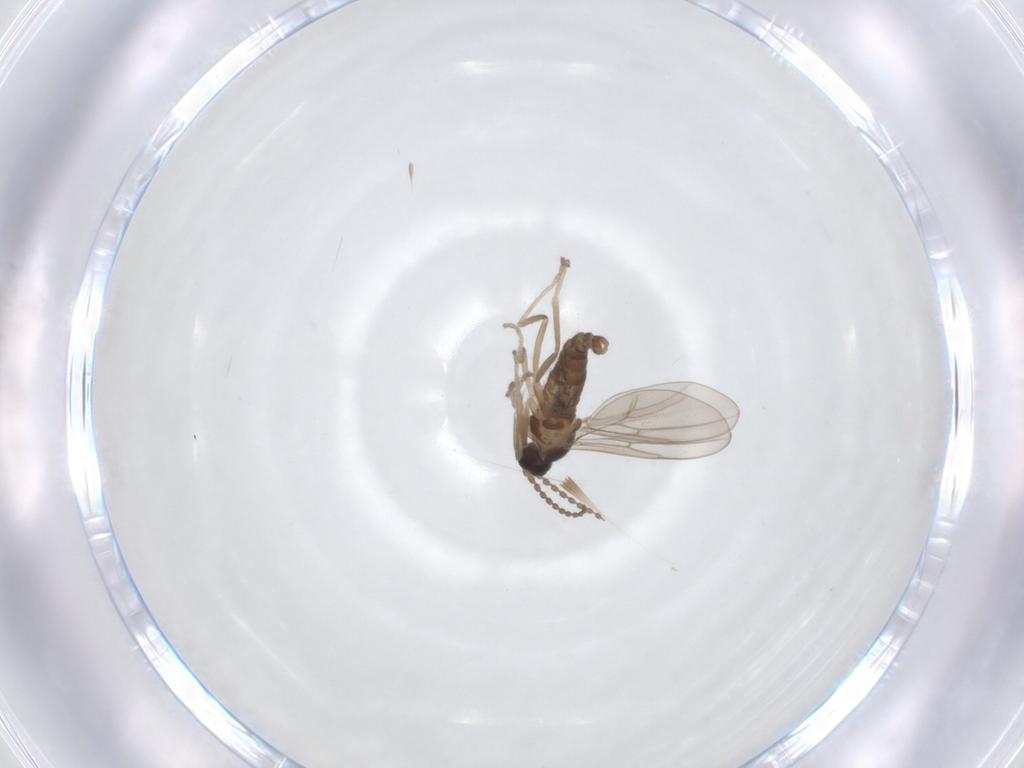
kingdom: Animalia
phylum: Arthropoda
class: Insecta
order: Diptera
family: Cecidomyiidae
